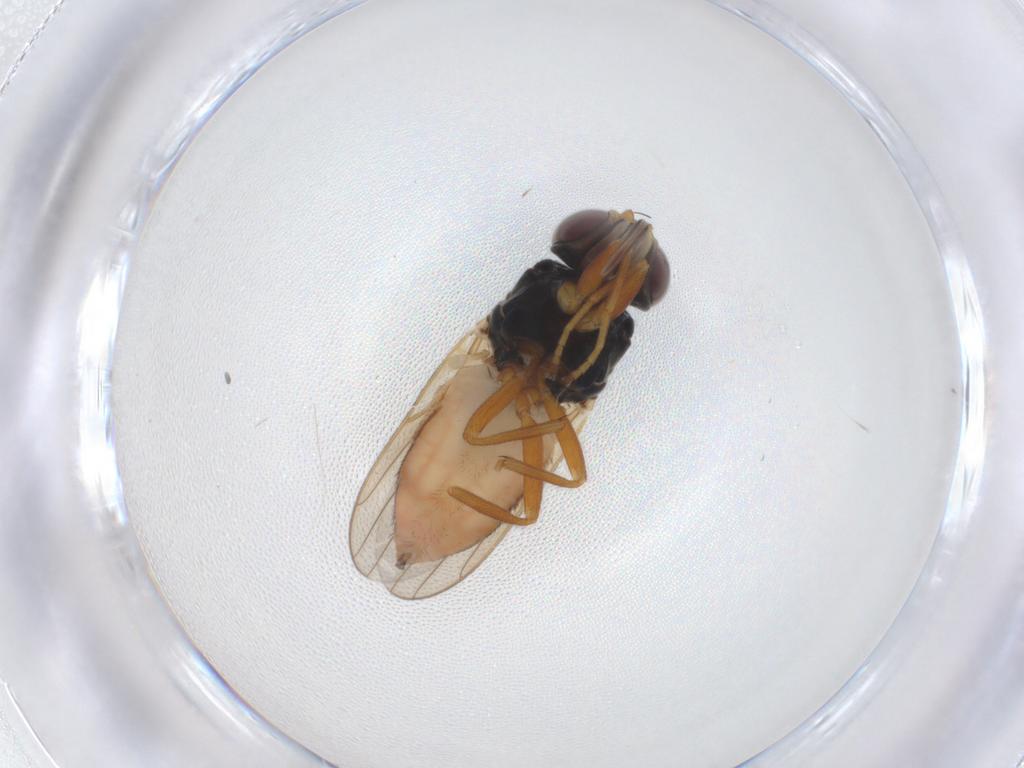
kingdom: Animalia
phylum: Arthropoda
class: Insecta
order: Diptera
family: Chloropidae
